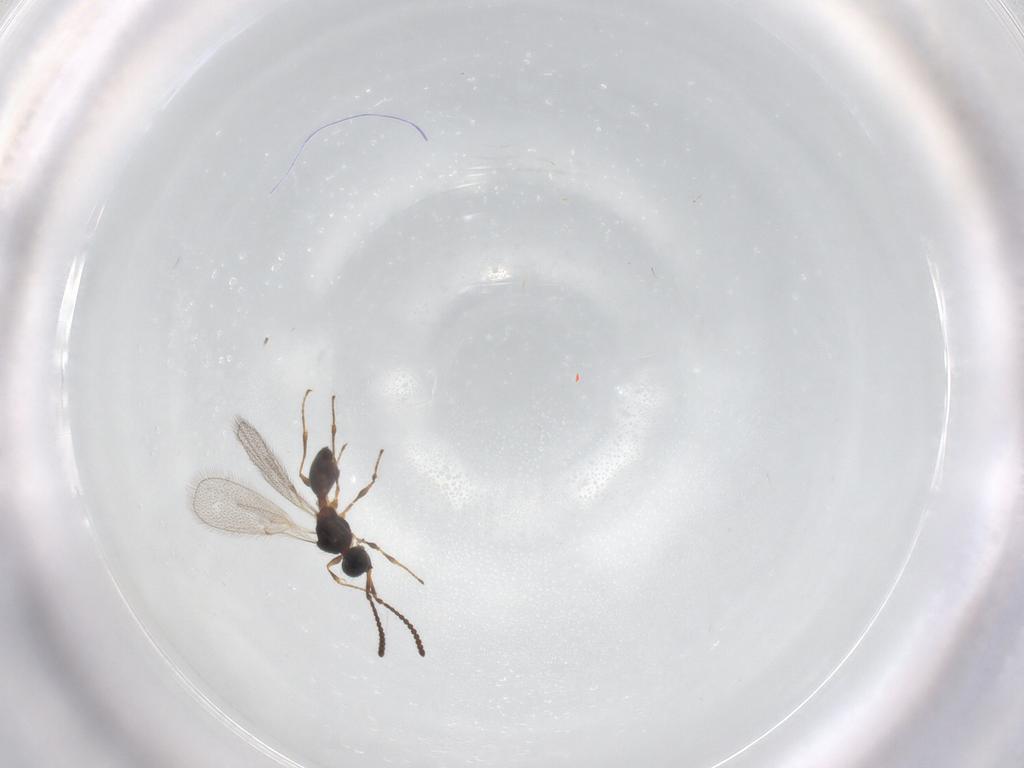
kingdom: Animalia
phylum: Arthropoda
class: Insecta
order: Hymenoptera
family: Diapriidae
